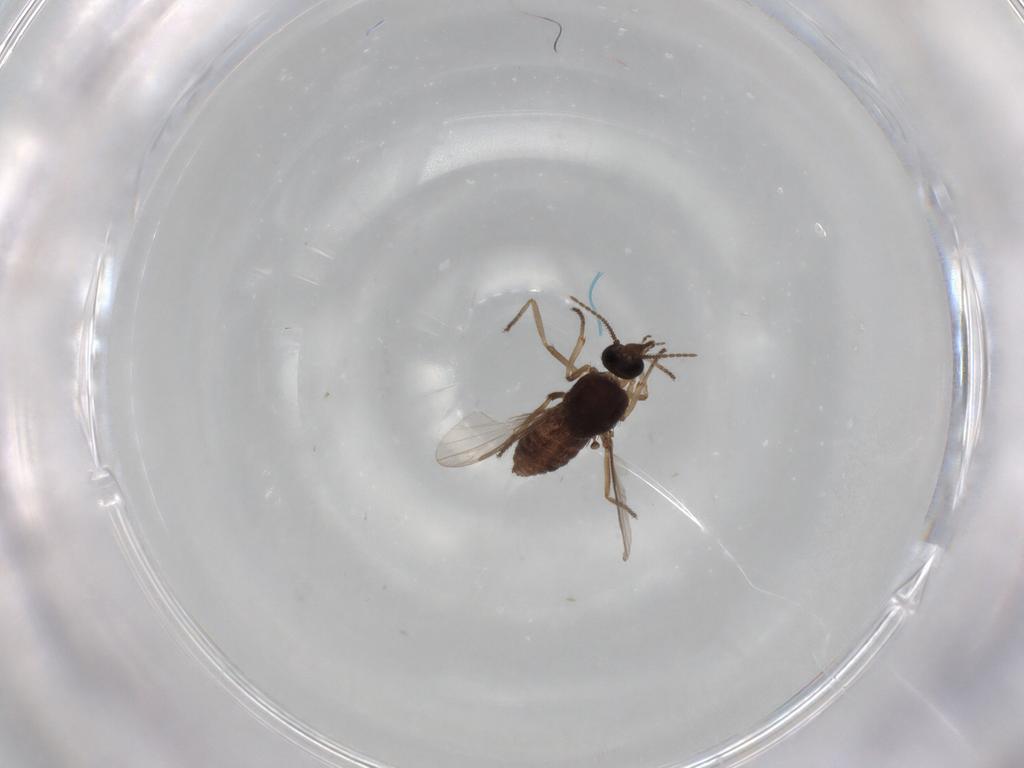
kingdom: Animalia
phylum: Arthropoda
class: Insecta
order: Diptera
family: Ceratopogonidae
